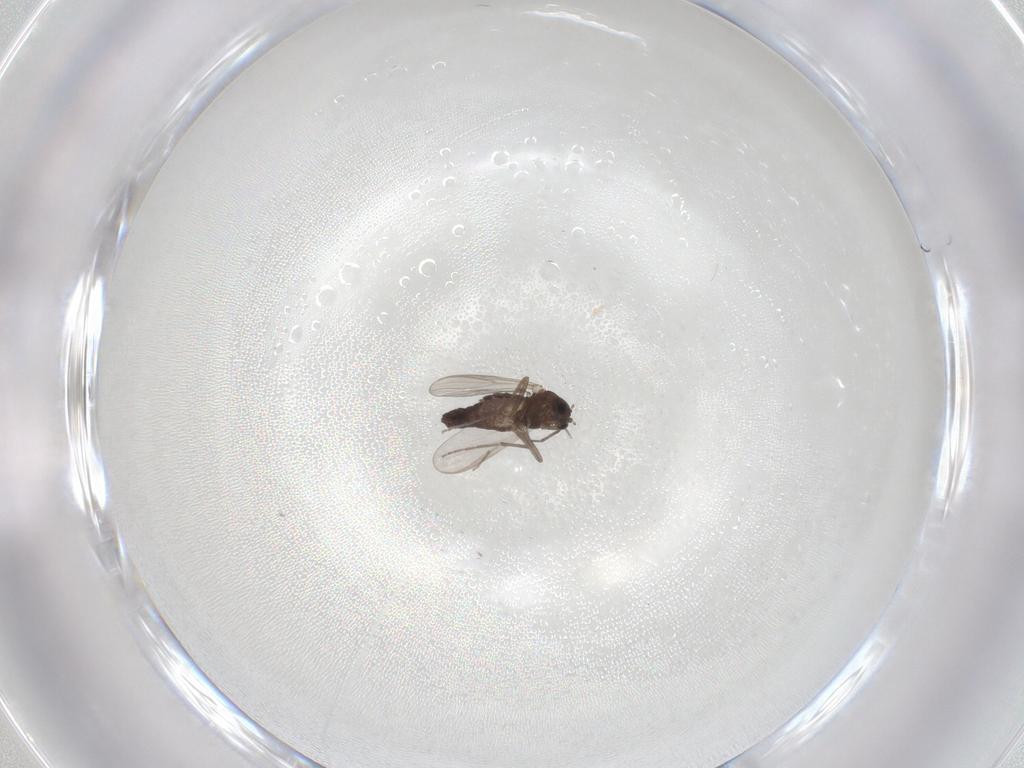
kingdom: Animalia
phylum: Arthropoda
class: Insecta
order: Diptera
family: Chironomidae
